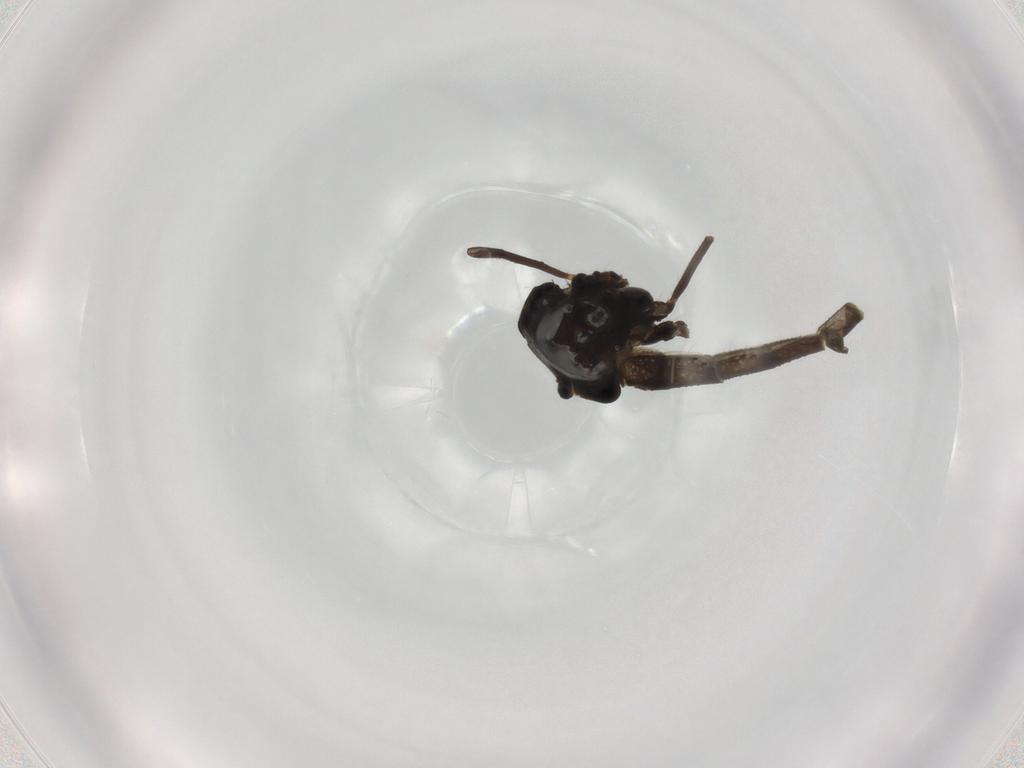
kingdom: Animalia
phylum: Arthropoda
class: Insecta
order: Diptera
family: Chironomidae
